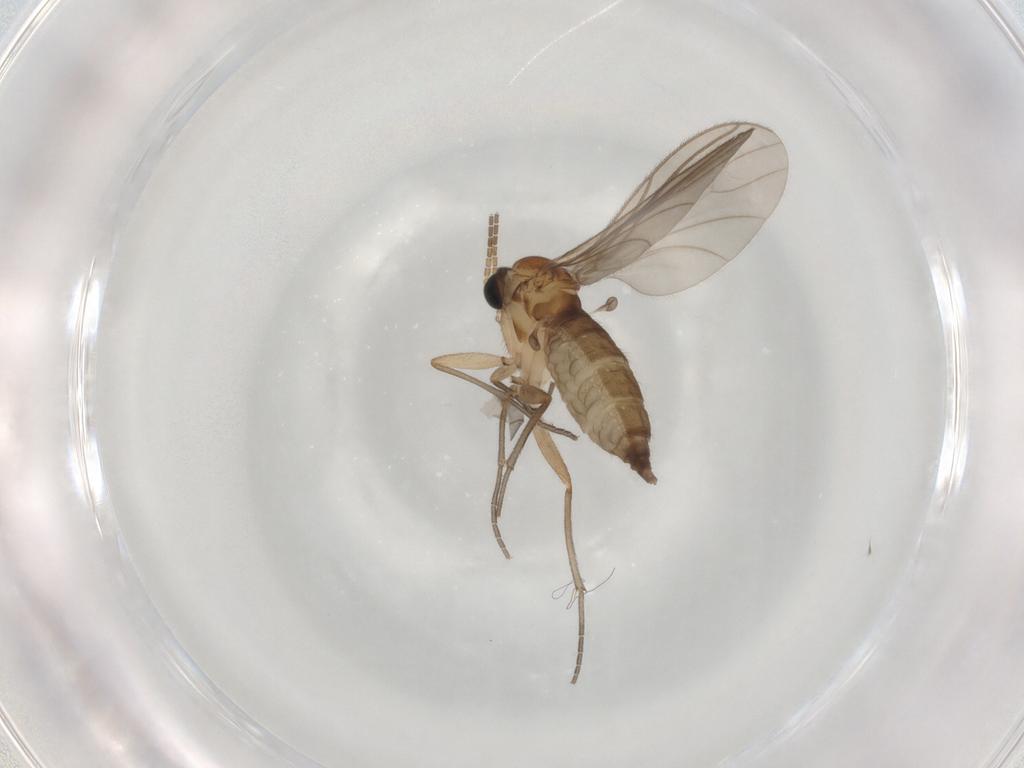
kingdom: Animalia
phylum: Arthropoda
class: Insecta
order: Diptera
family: Sciaridae
